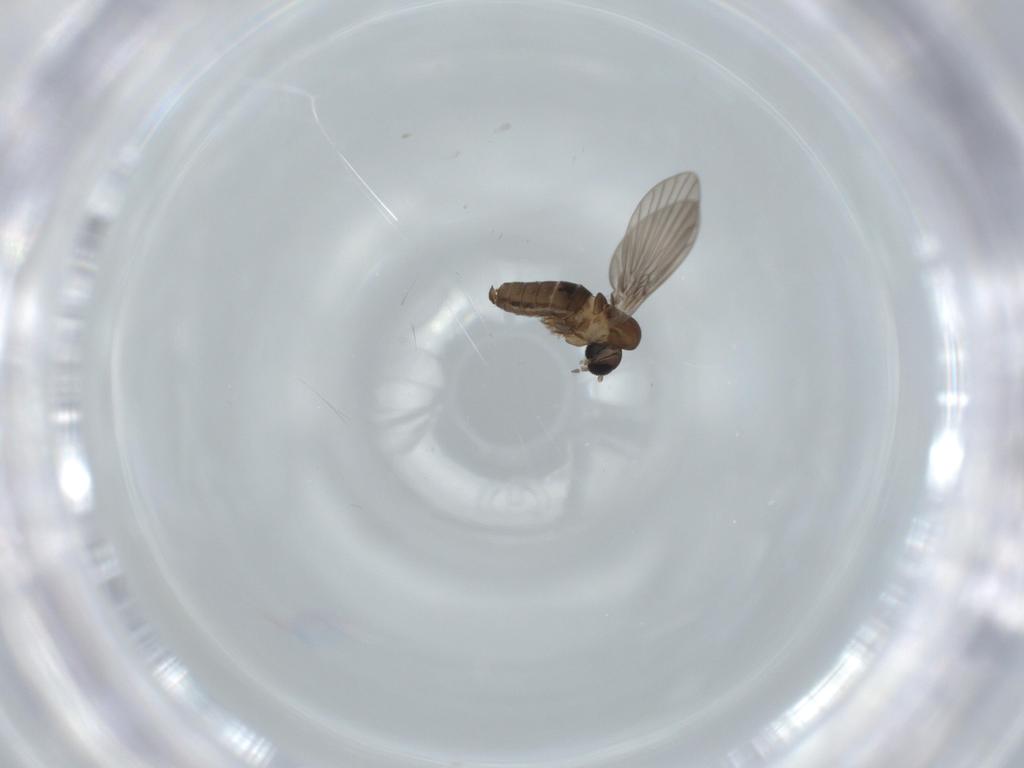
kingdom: Animalia
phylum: Arthropoda
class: Insecta
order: Diptera
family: Psychodidae
